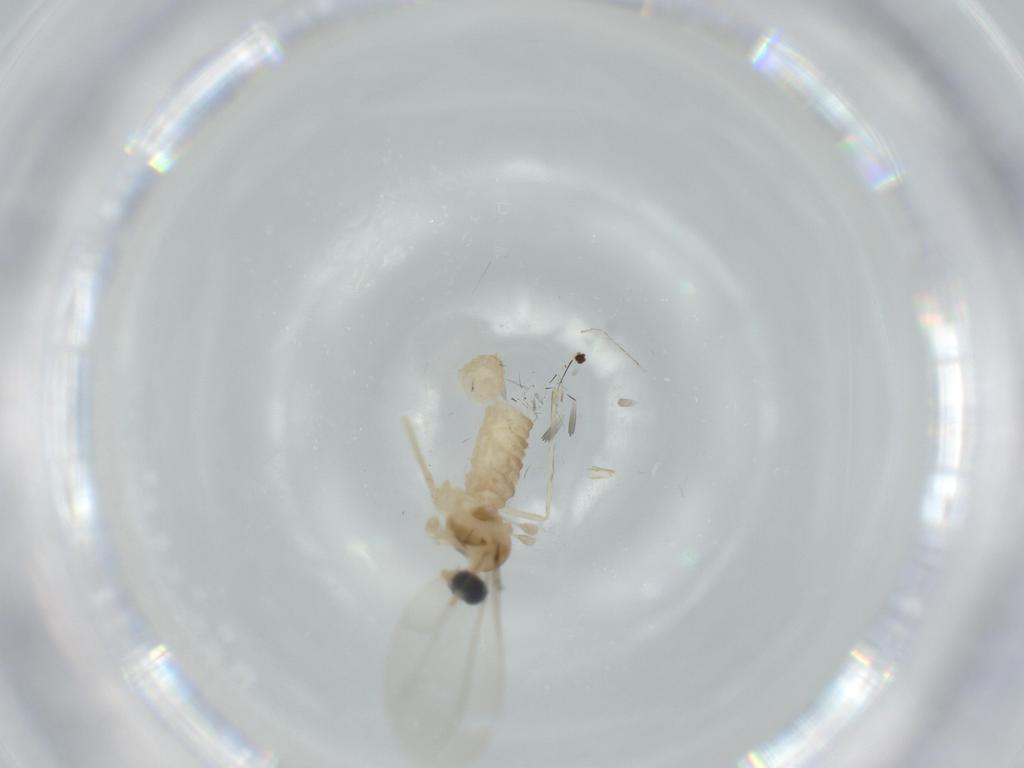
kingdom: Animalia
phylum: Arthropoda
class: Insecta
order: Diptera
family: Cecidomyiidae
